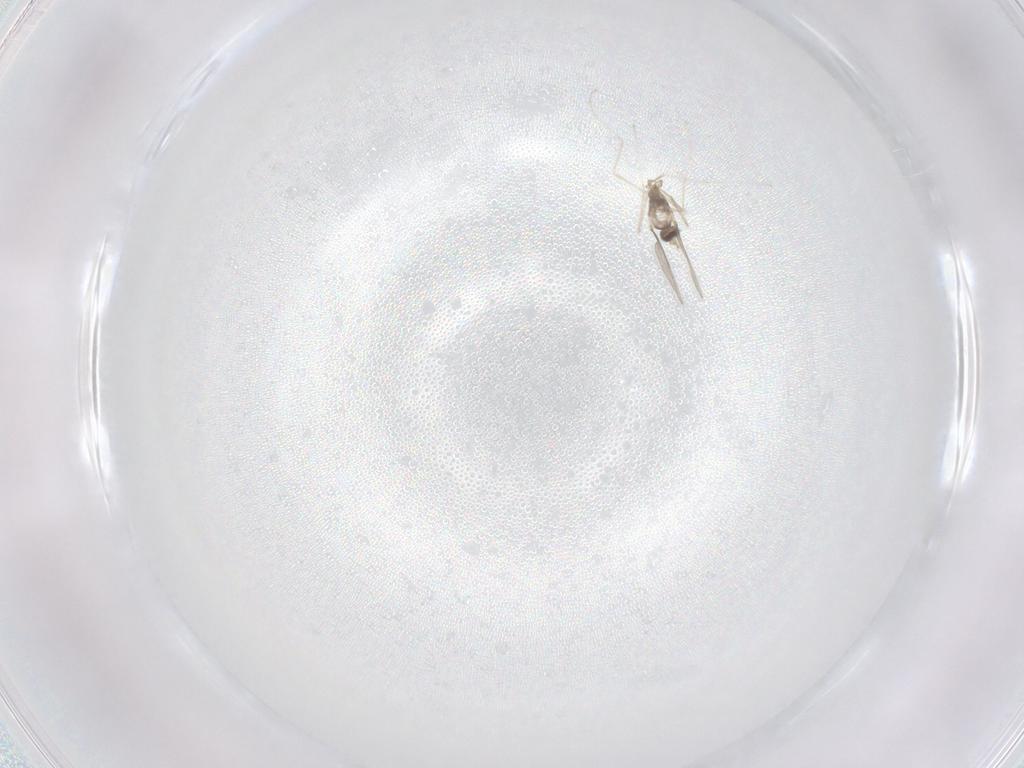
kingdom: Animalia
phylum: Arthropoda
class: Insecta
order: Diptera
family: Cecidomyiidae
